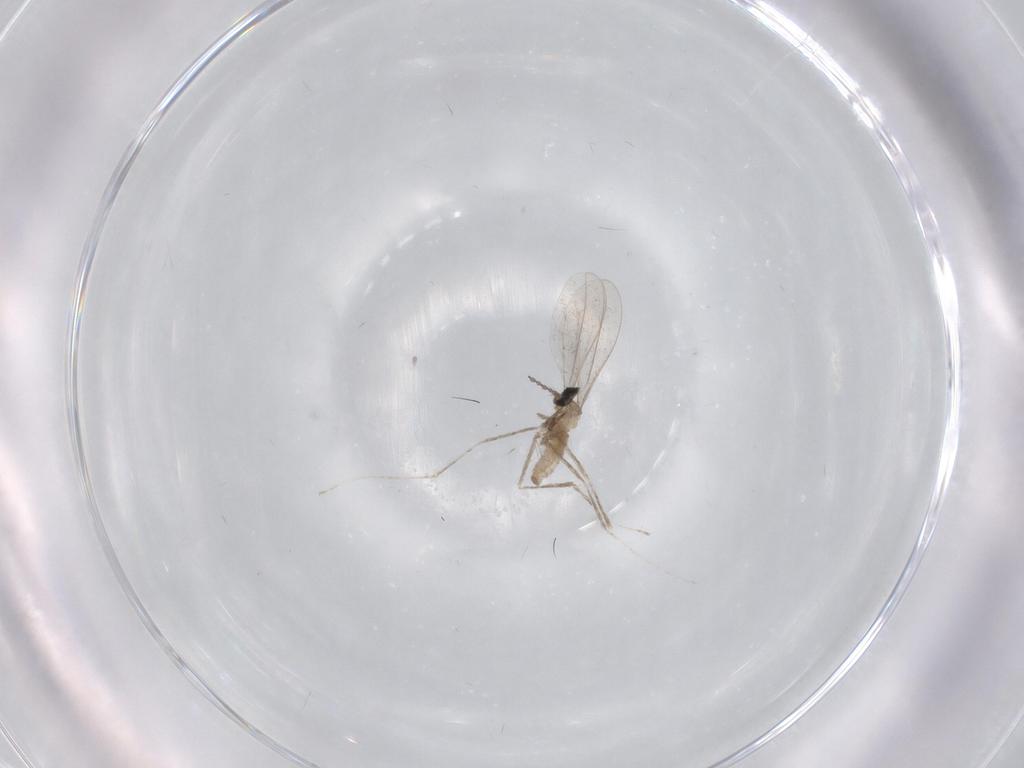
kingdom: Animalia
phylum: Arthropoda
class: Insecta
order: Diptera
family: Cecidomyiidae
